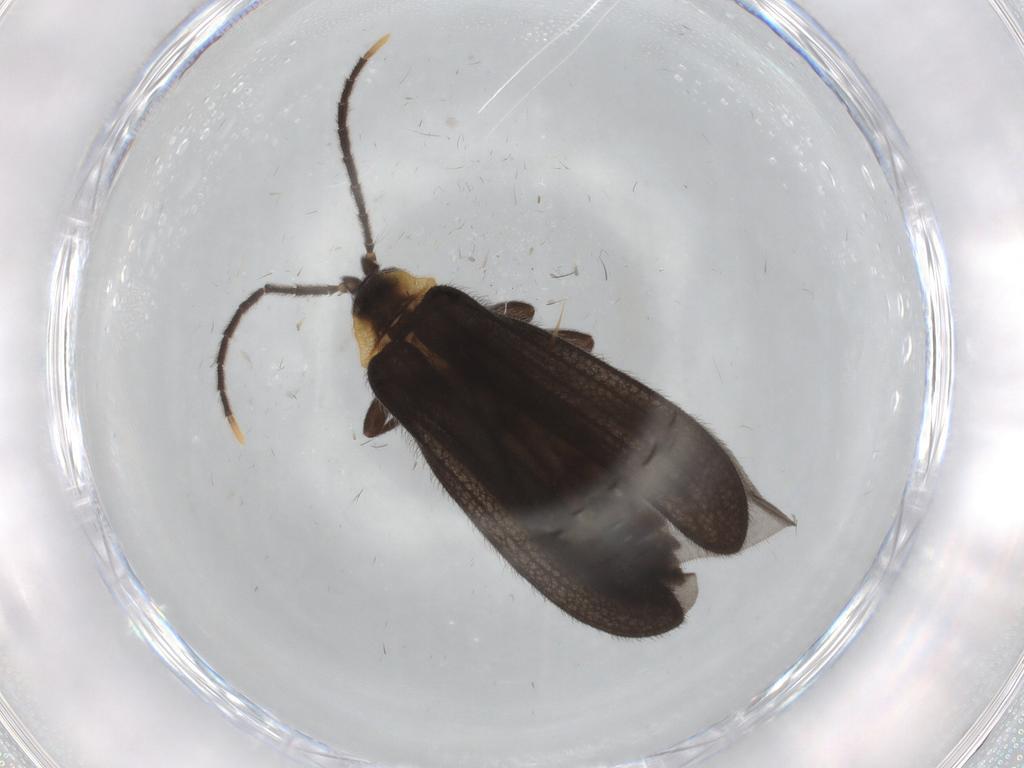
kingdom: Animalia
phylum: Arthropoda
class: Insecta
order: Coleoptera
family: Lycidae
